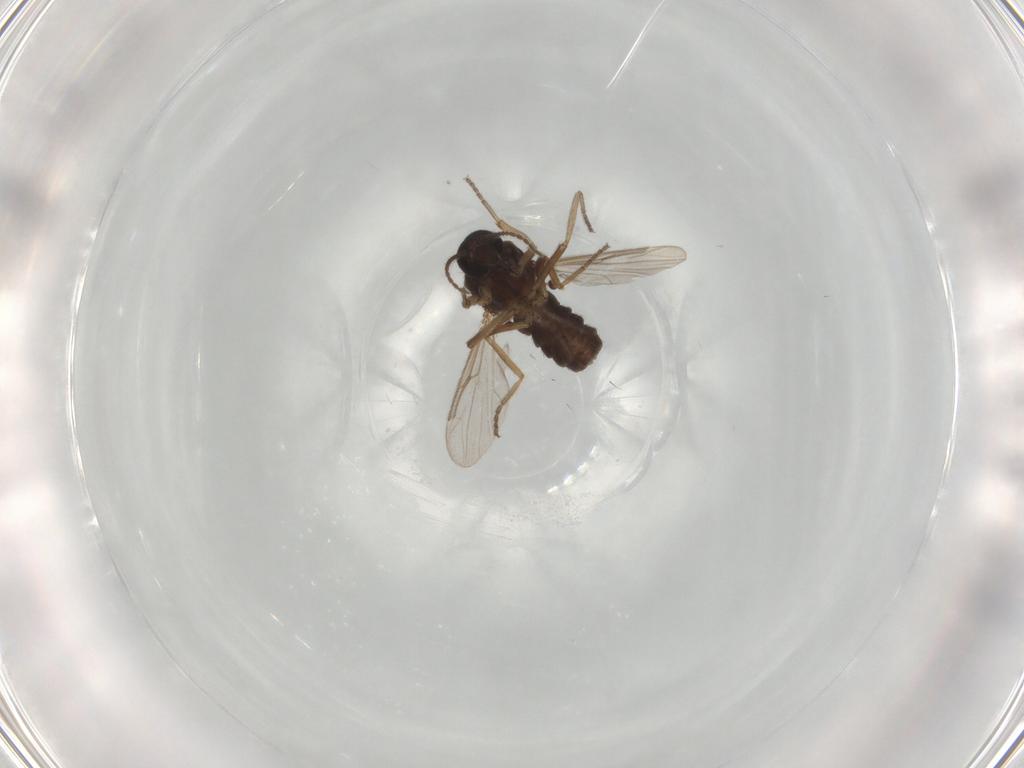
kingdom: Animalia
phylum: Arthropoda
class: Insecta
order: Diptera
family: Ceratopogonidae
